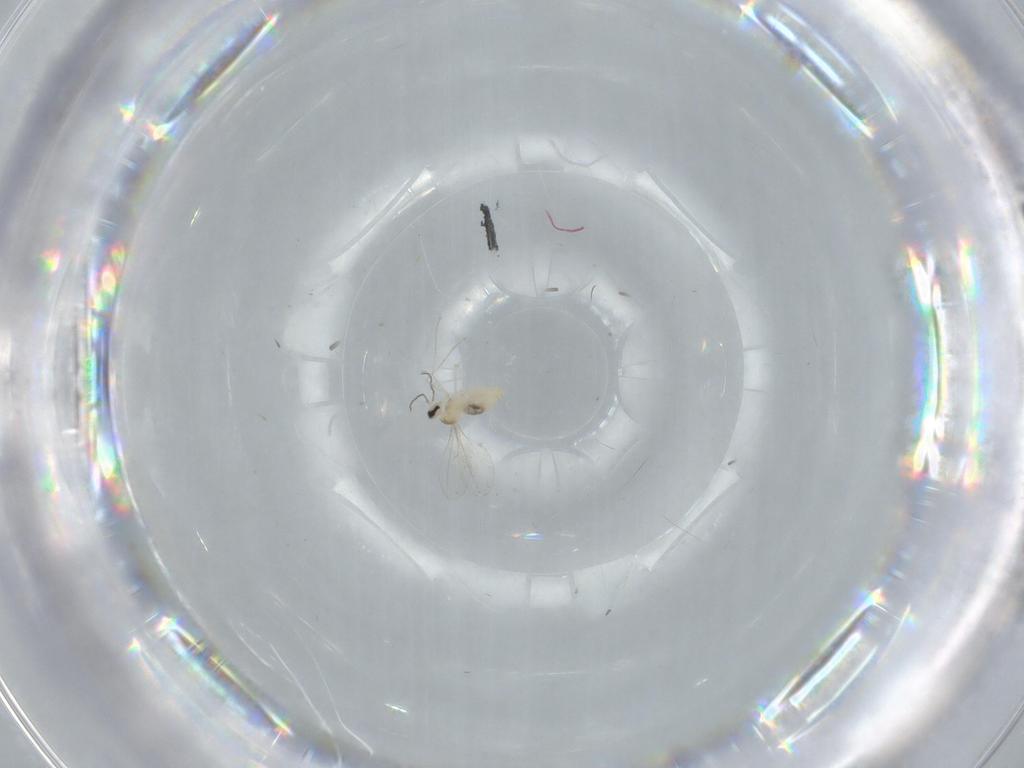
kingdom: Animalia
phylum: Arthropoda
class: Insecta
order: Diptera
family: Cecidomyiidae
